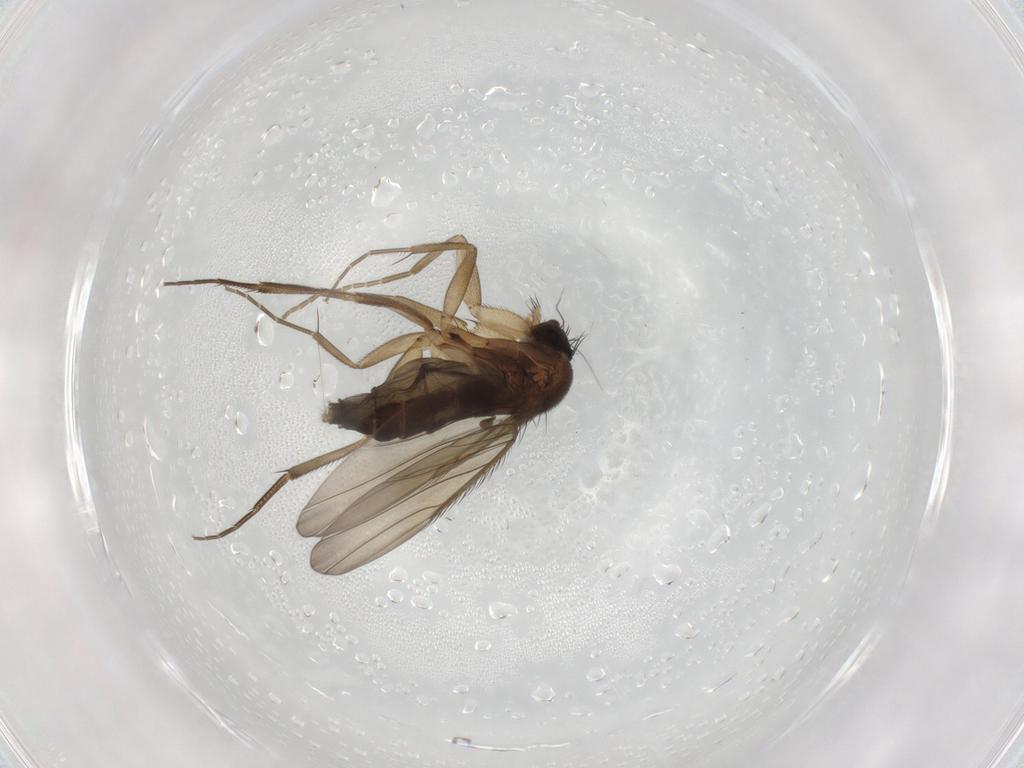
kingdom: Animalia
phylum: Arthropoda
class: Insecta
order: Diptera
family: Phoridae
